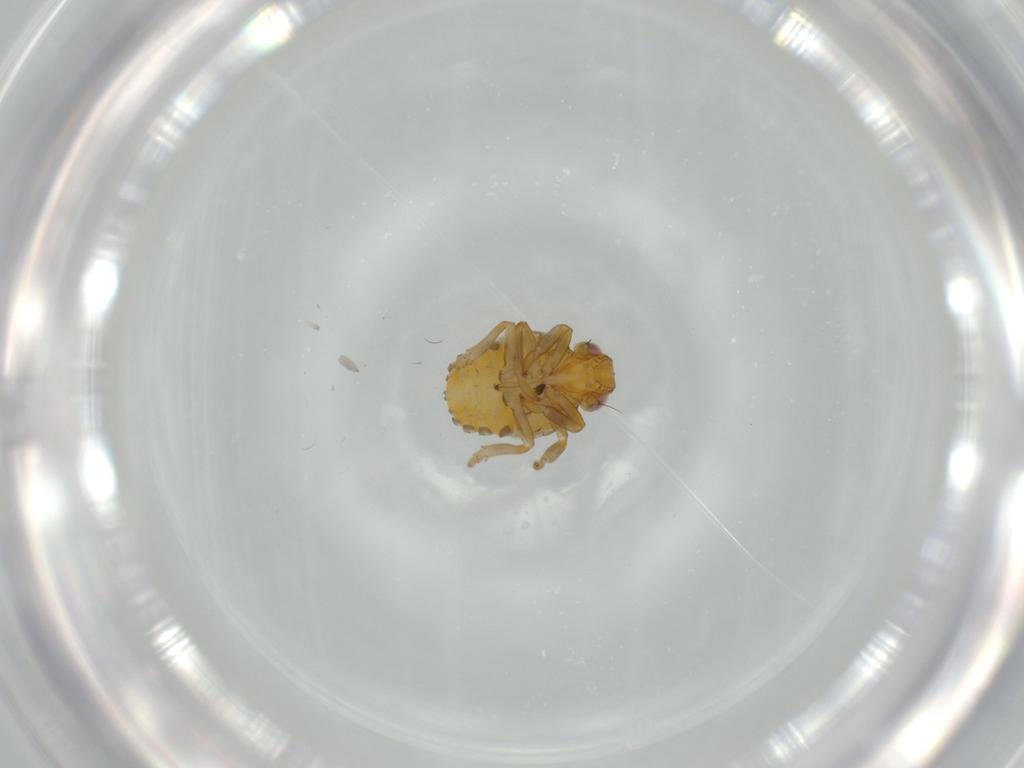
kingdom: Animalia
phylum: Arthropoda
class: Insecta
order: Hemiptera
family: Issidae
